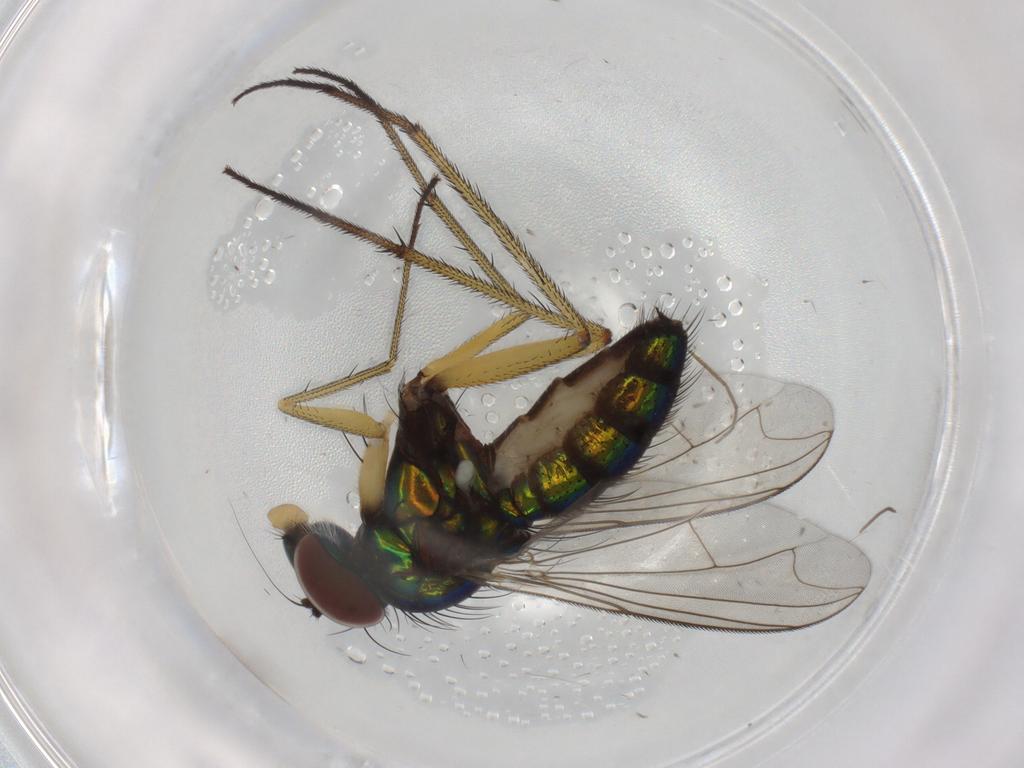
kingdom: Animalia
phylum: Arthropoda
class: Insecta
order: Diptera
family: Dolichopodidae
